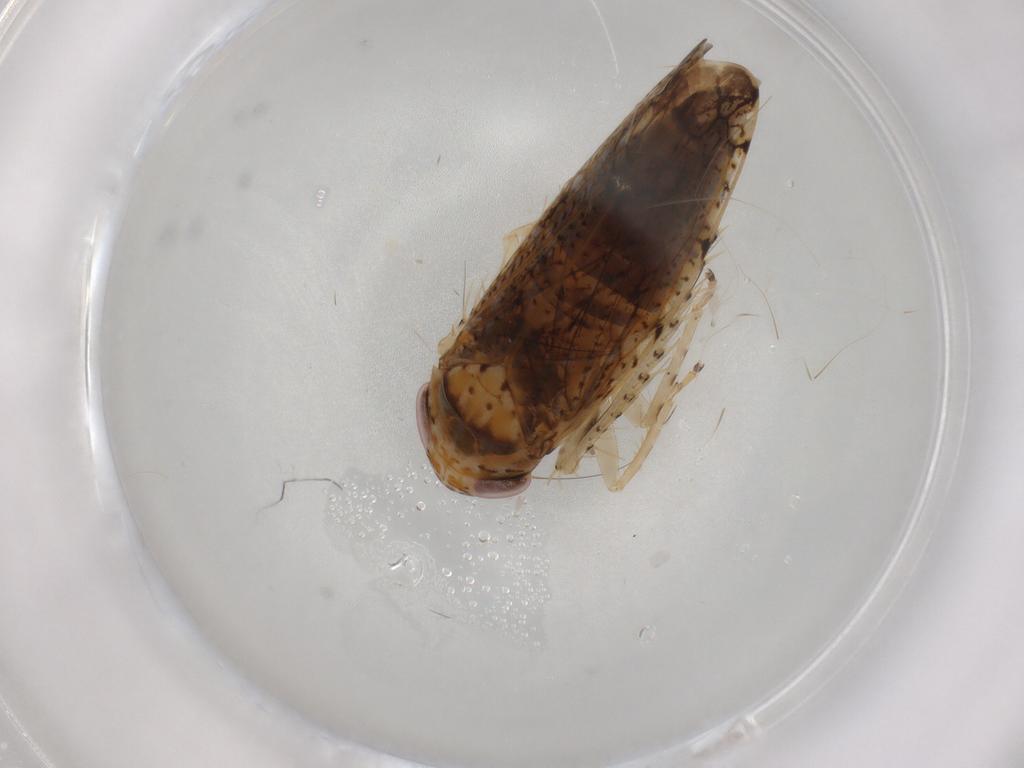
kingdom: Animalia
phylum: Arthropoda
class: Insecta
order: Hemiptera
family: Cicadellidae
